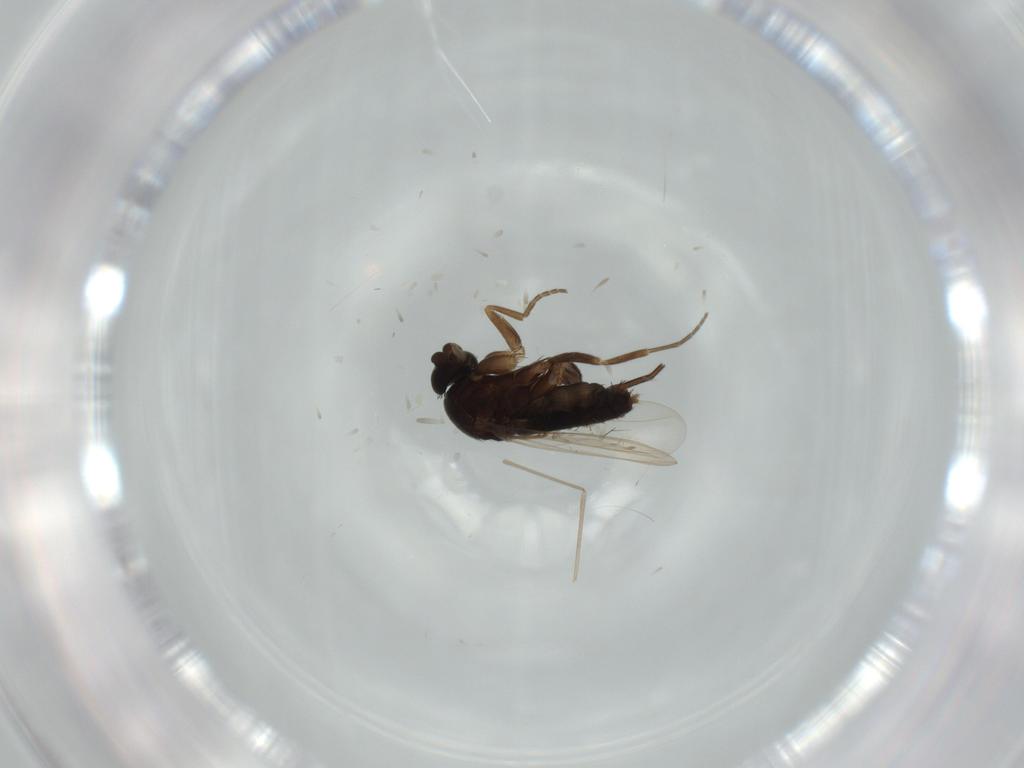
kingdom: Animalia
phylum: Arthropoda
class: Insecta
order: Diptera
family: Phoridae
